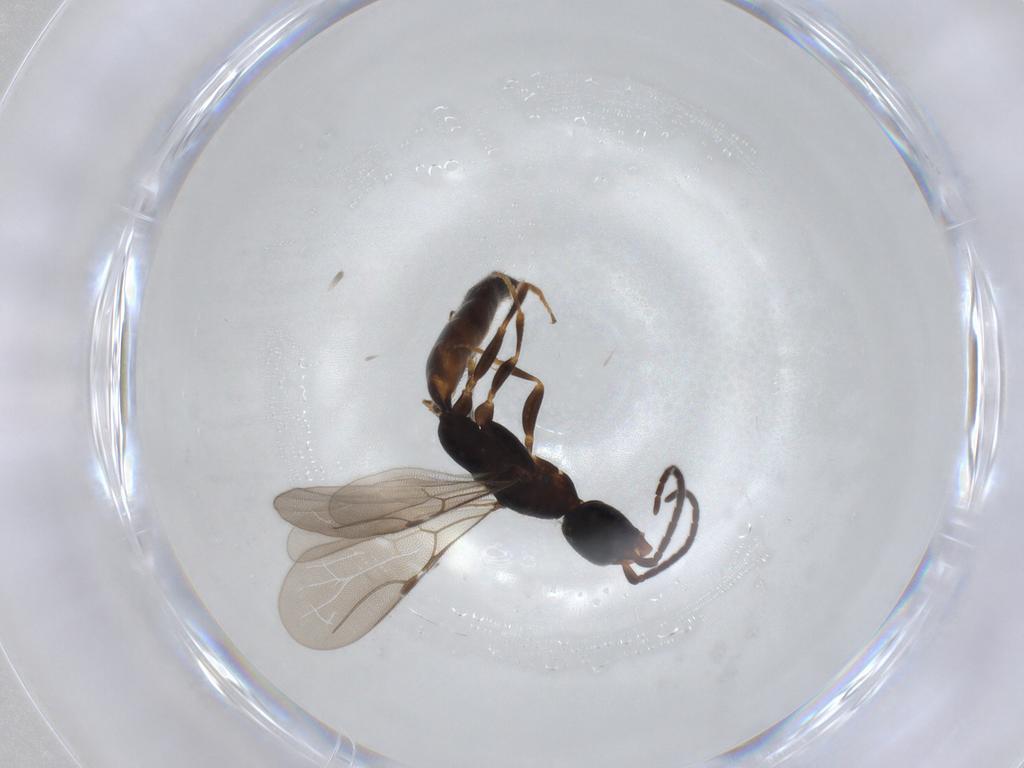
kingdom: Animalia
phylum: Arthropoda
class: Insecta
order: Hymenoptera
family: Bethylidae
